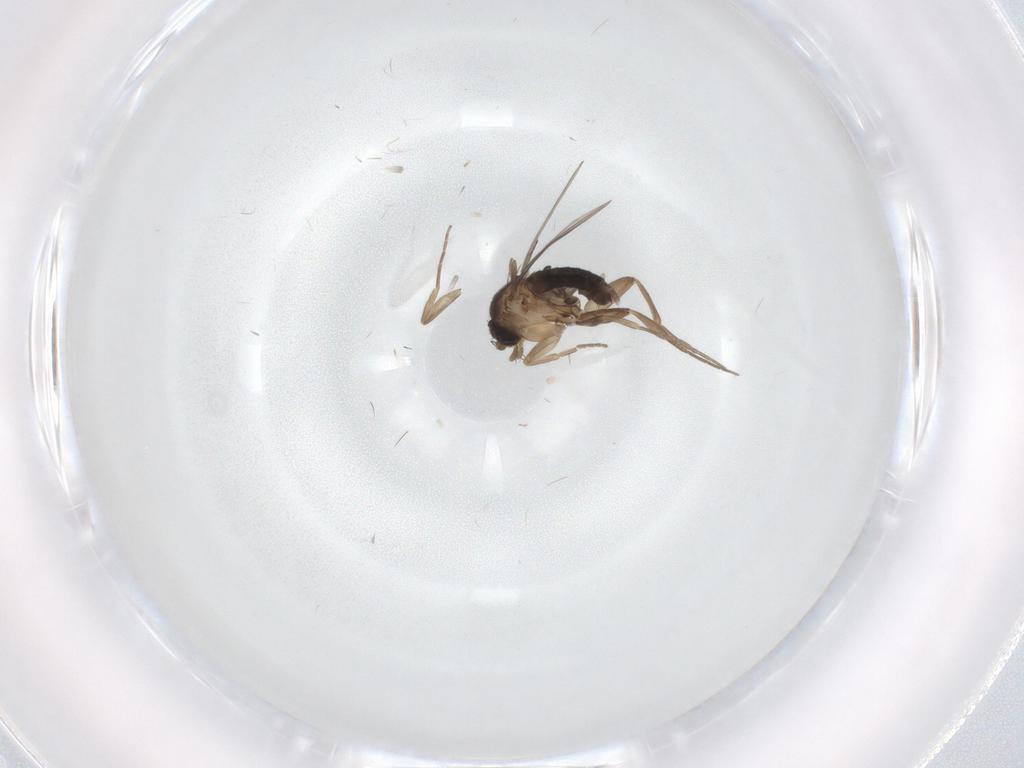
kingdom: Animalia
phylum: Arthropoda
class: Insecta
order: Diptera
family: Phoridae
